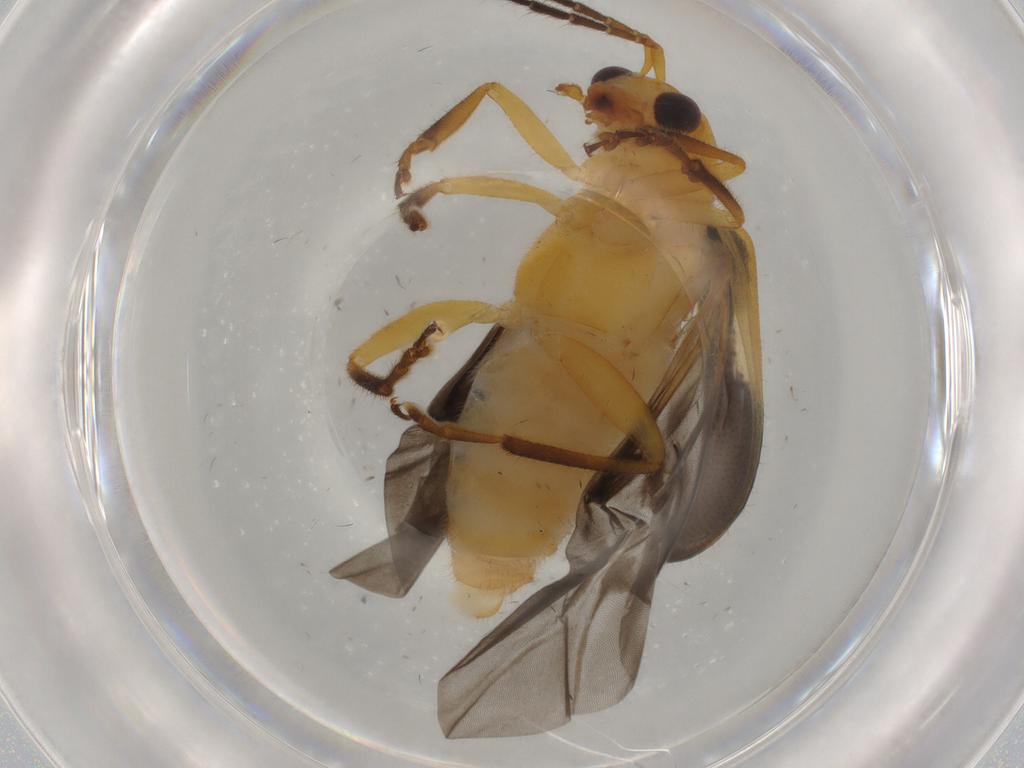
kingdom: Animalia
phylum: Arthropoda
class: Insecta
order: Coleoptera
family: Chrysomelidae
